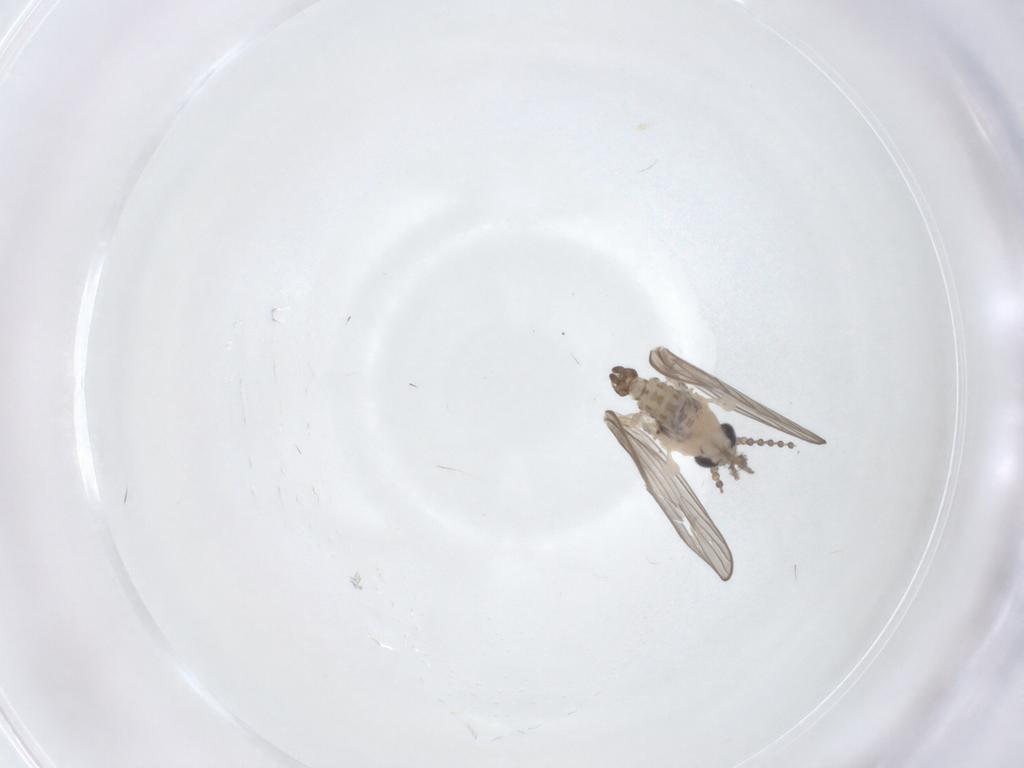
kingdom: Animalia
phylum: Arthropoda
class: Insecta
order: Diptera
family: Psychodidae
